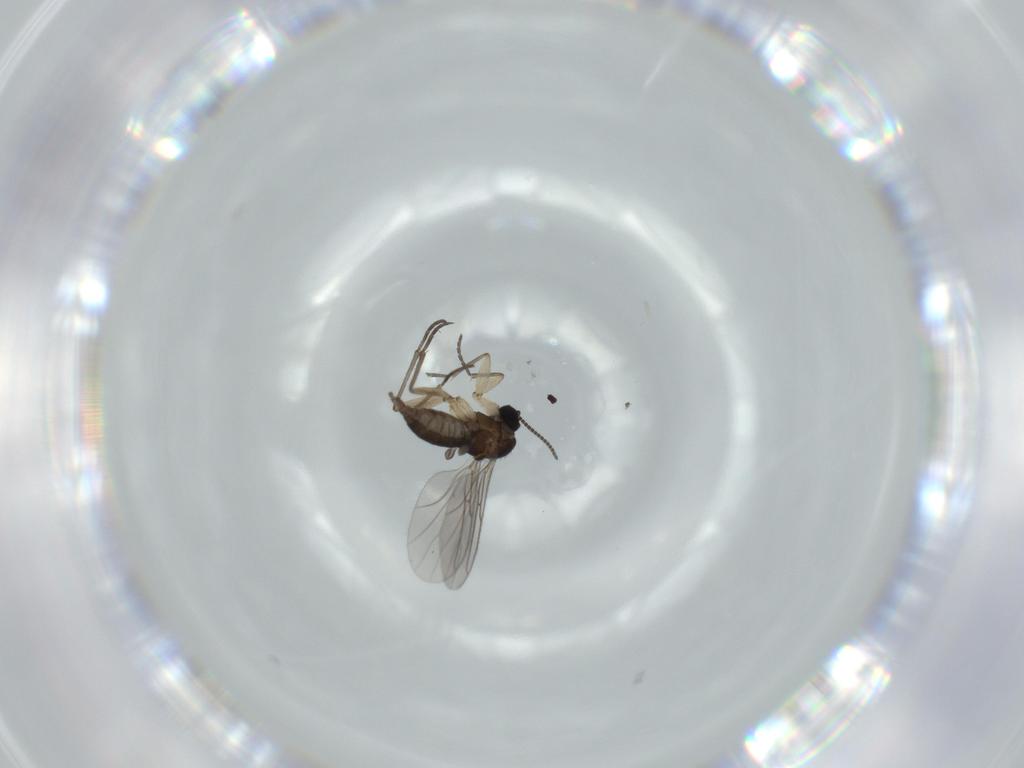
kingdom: Animalia
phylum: Arthropoda
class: Insecta
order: Diptera
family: Sciaridae
